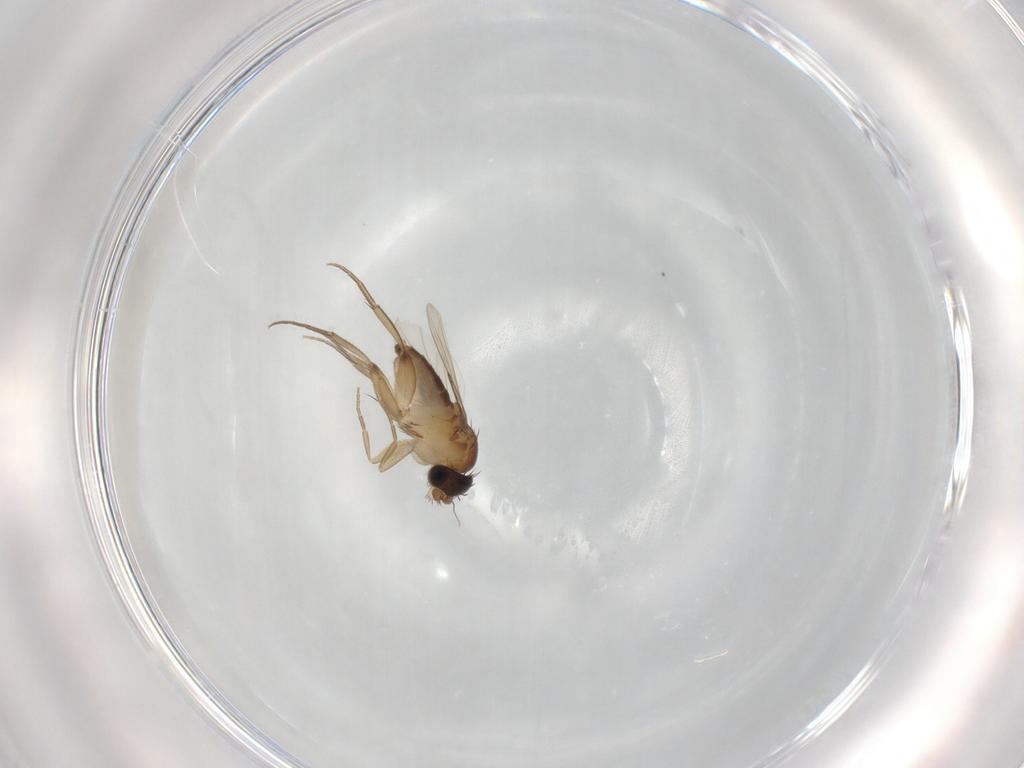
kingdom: Animalia
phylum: Arthropoda
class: Insecta
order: Diptera
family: Phoridae
